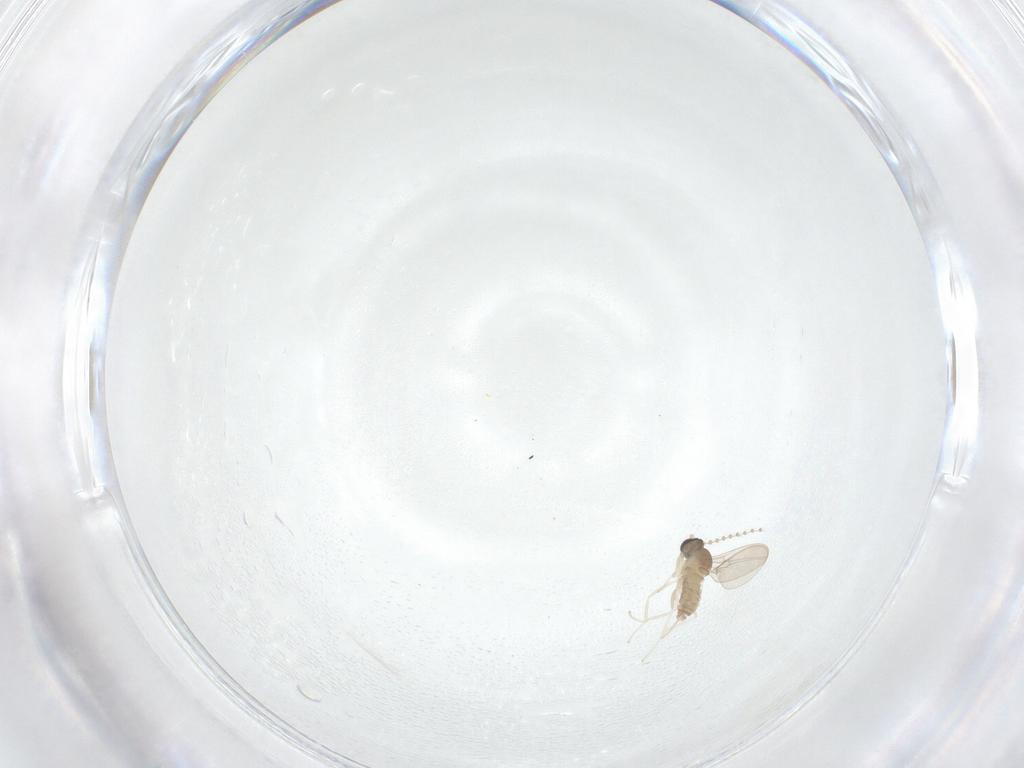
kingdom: Animalia
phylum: Arthropoda
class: Insecta
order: Diptera
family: Cecidomyiidae
